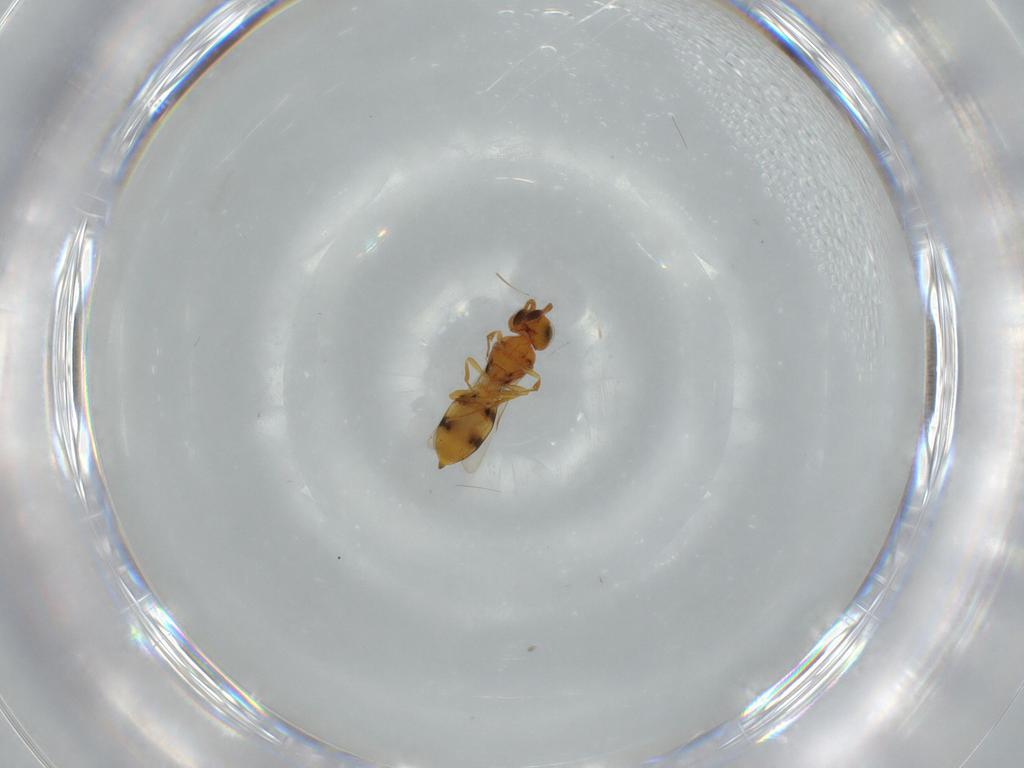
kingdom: Animalia
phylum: Arthropoda
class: Insecta
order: Hymenoptera
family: Scelionidae
